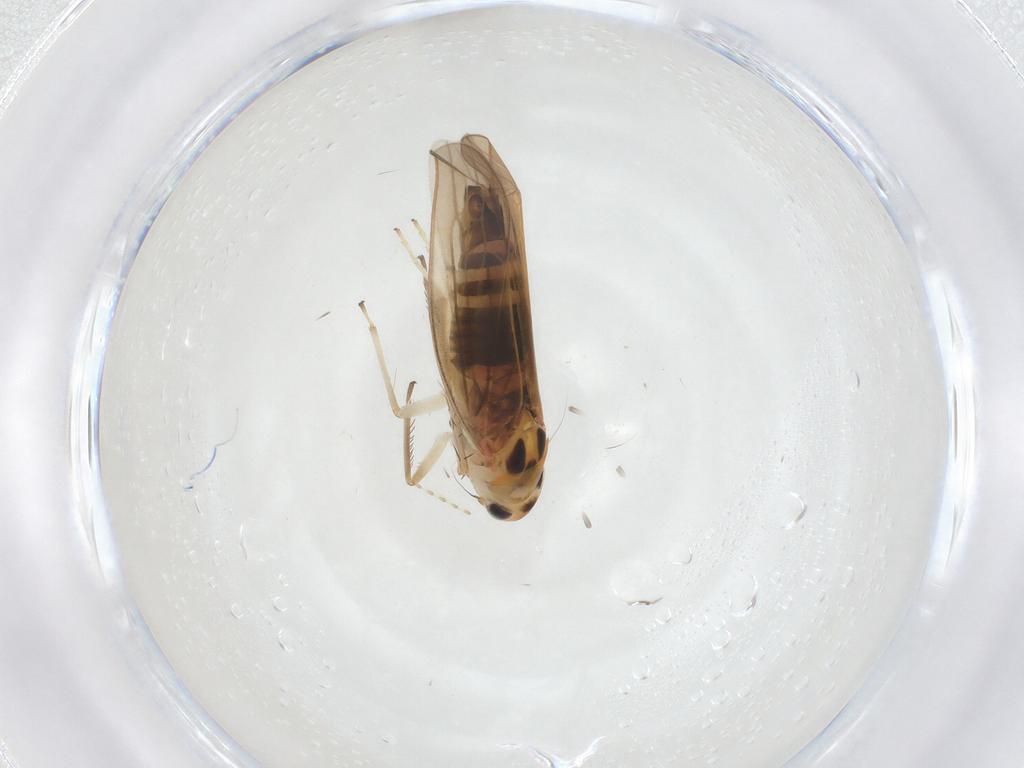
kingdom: Animalia
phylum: Arthropoda
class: Insecta
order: Hemiptera
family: Cicadellidae
